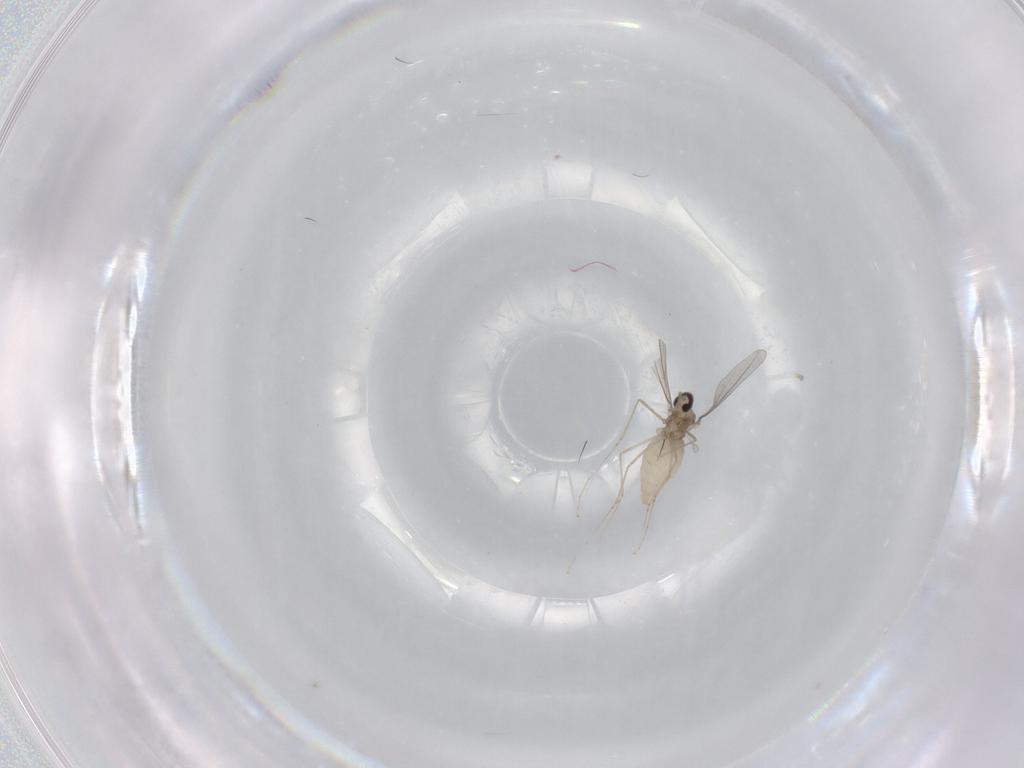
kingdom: Animalia
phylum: Arthropoda
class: Insecta
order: Diptera
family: Cecidomyiidae
